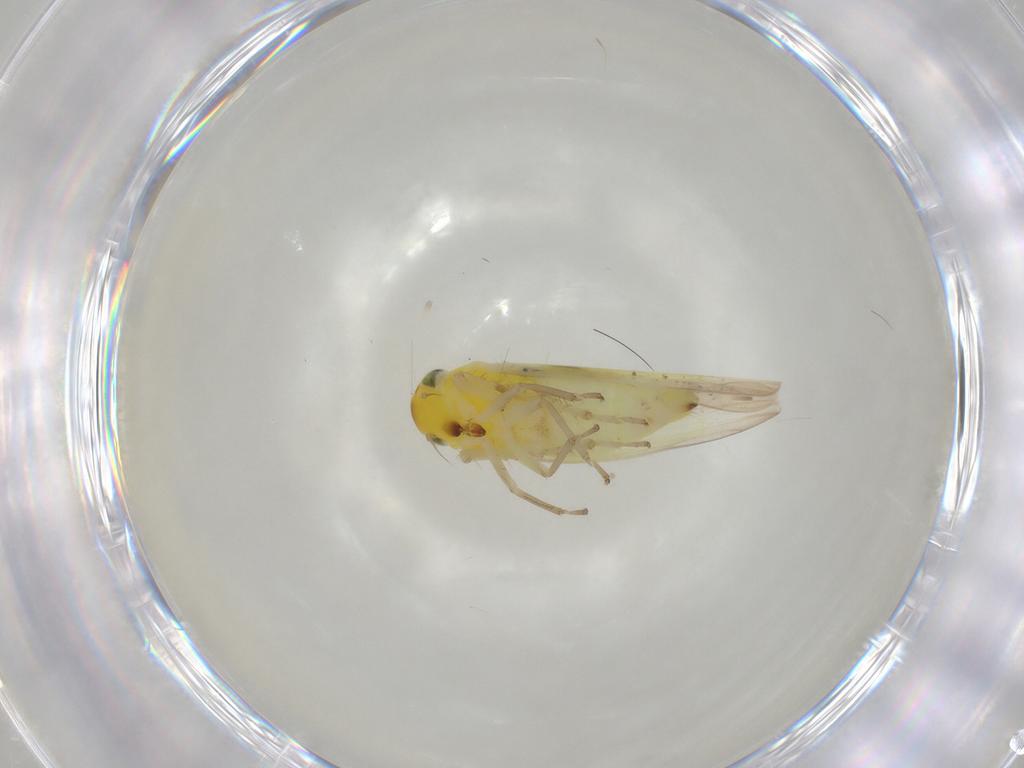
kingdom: Animalia
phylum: Arthropoda
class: Insecta
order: Hemiptera
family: Cicadellidae
